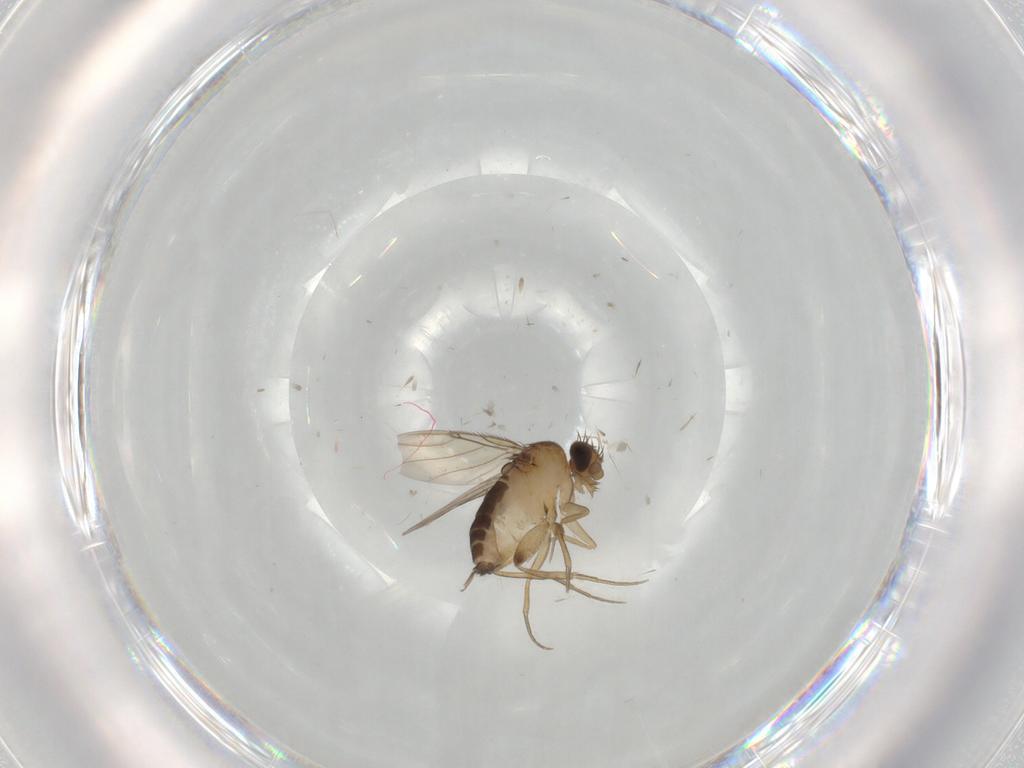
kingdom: Animalia
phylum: Arthropoda
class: Insecta
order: Diptera
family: Phoridae
